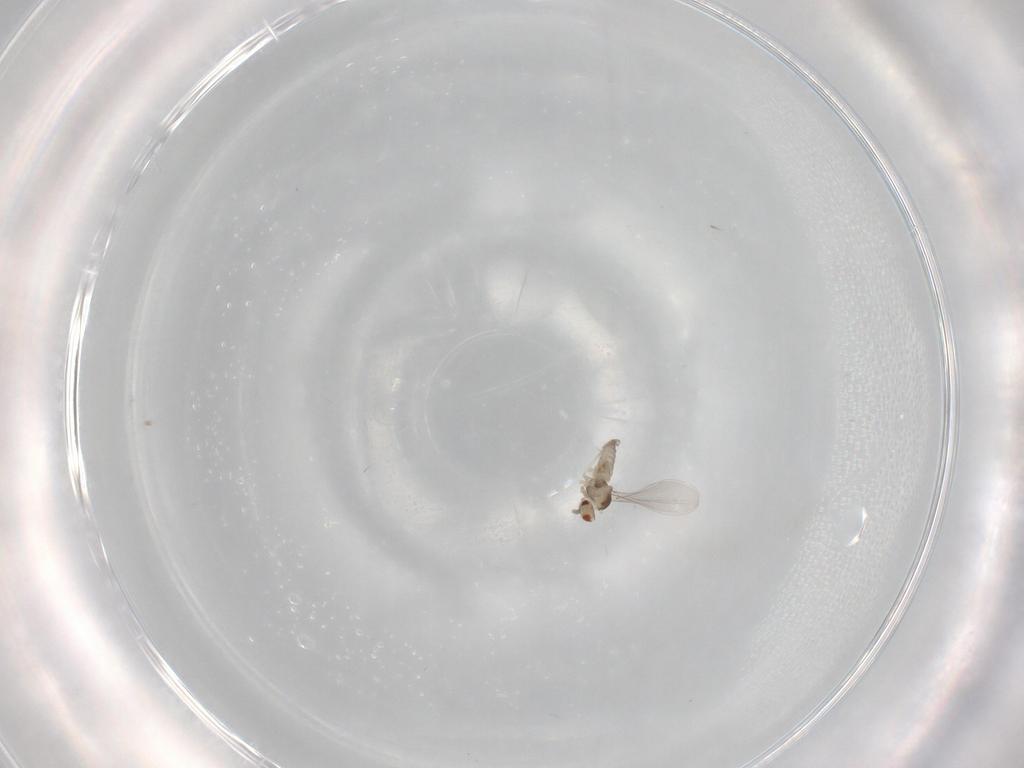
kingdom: Animalia
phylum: Arthropoda
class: Insecta
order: Diptera
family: Cecidomyiidae
